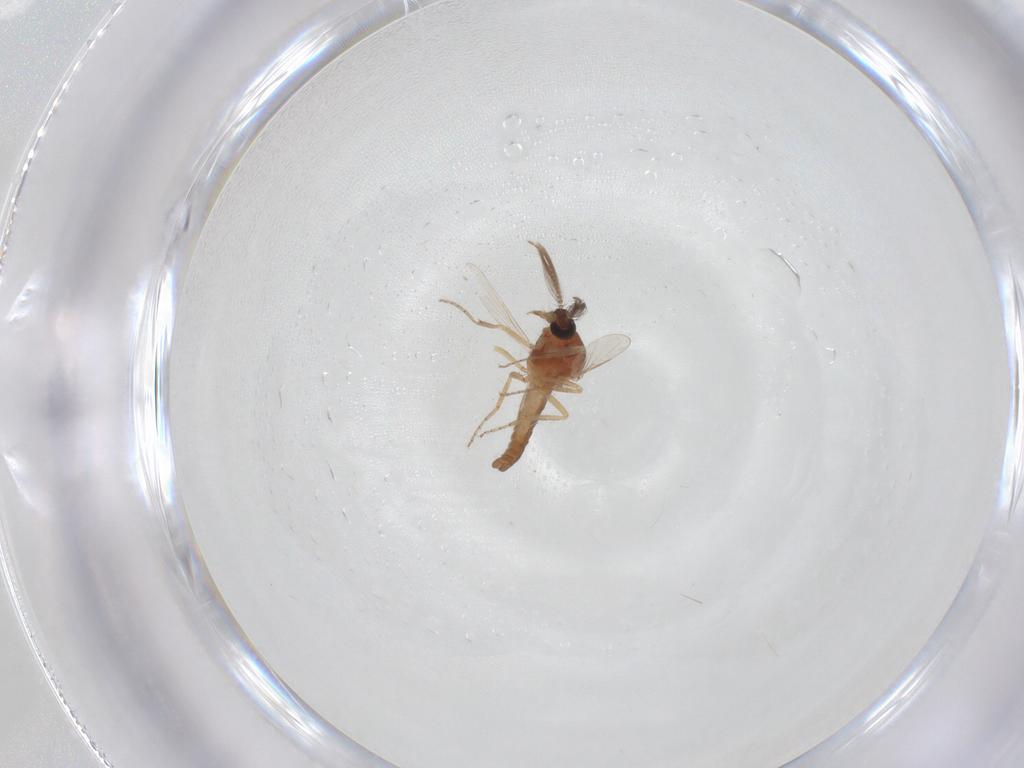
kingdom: Animalia
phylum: Arthropoda
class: Insecta
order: Diptera
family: Ceratopogonidae
